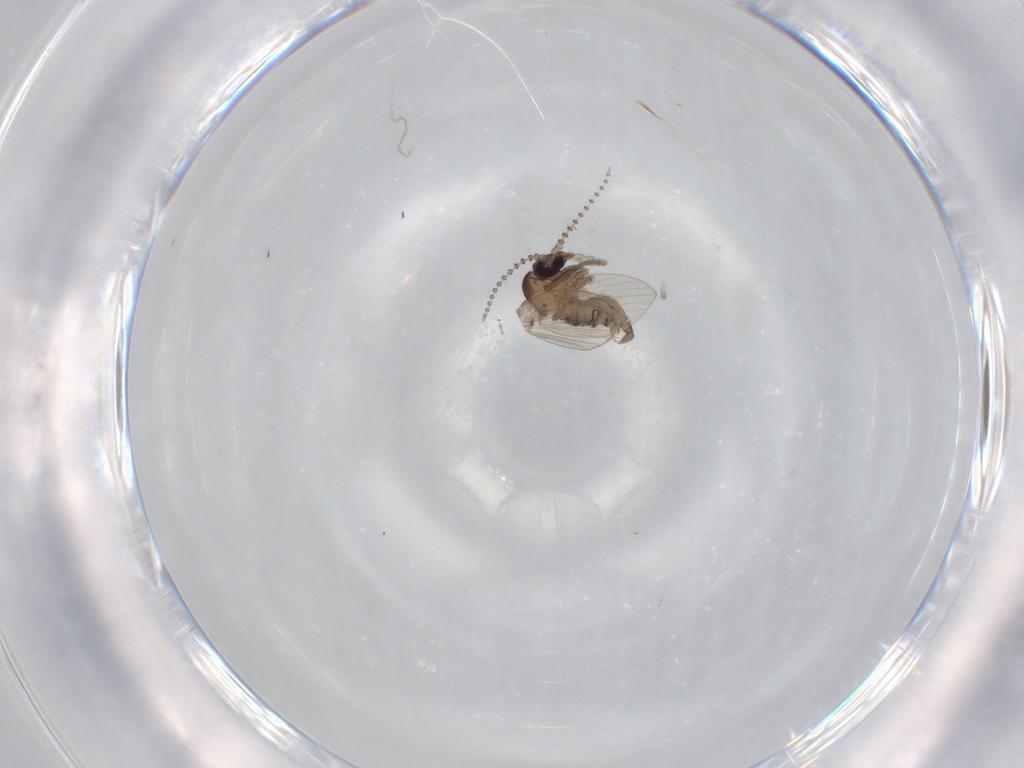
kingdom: Animalia
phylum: Arthropoda
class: Insecta
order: Diptera
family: Psychodidae
